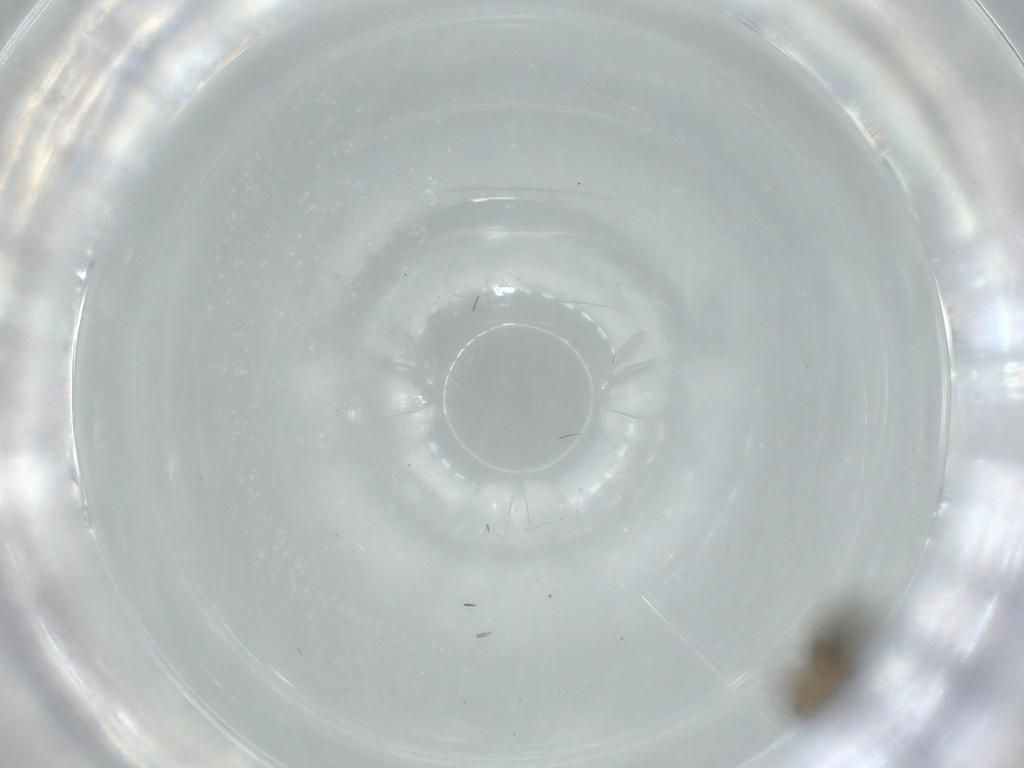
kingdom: Animalia
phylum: Arthropoda
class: Insecta
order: Diptera
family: Phoridae
